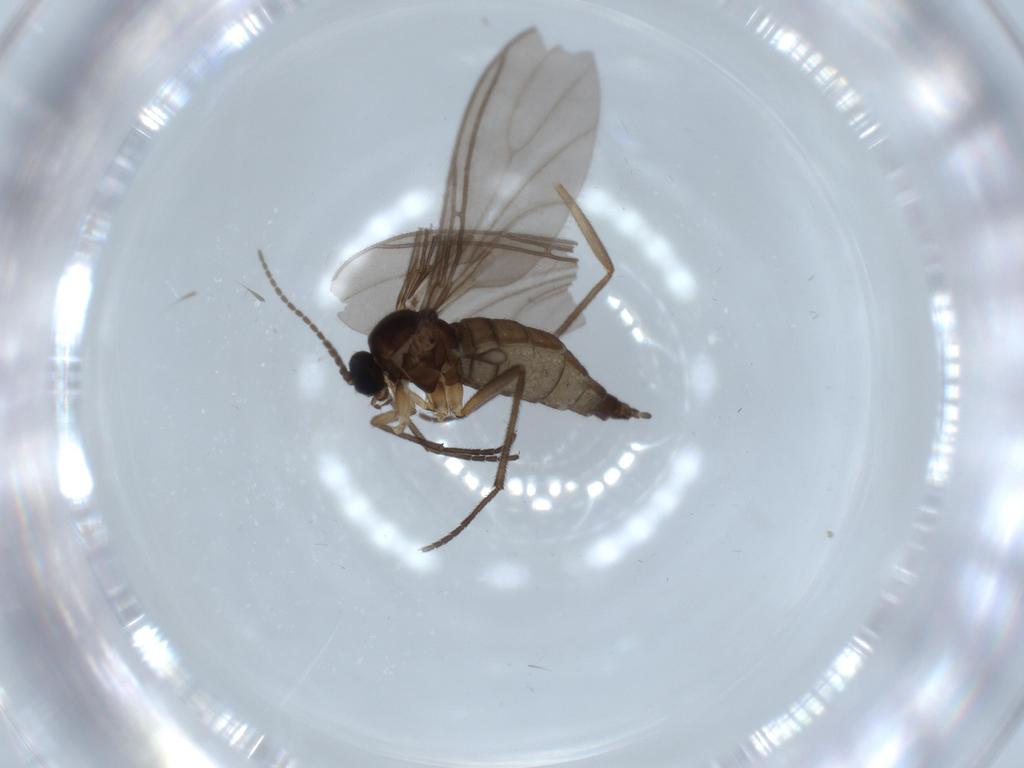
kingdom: Animalia
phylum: Arthropoda
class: Insecta
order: Diptera
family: Sciaridae
